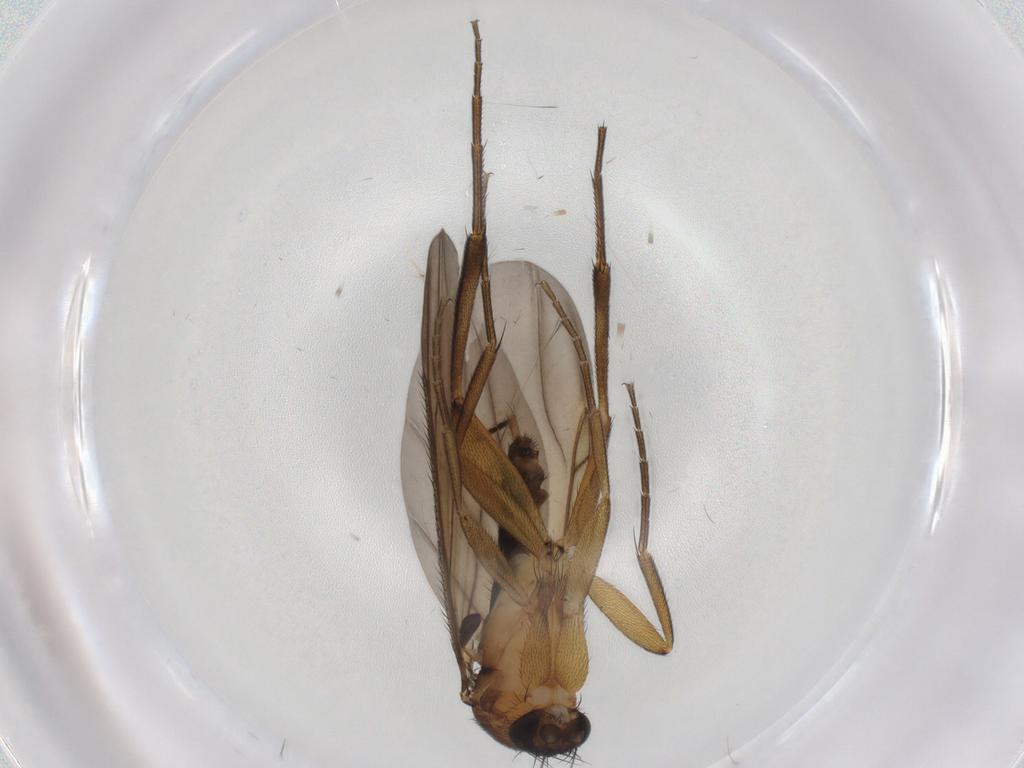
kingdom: Animalia
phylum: Arthropoda
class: Insecta
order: Diptera
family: Phoridae
